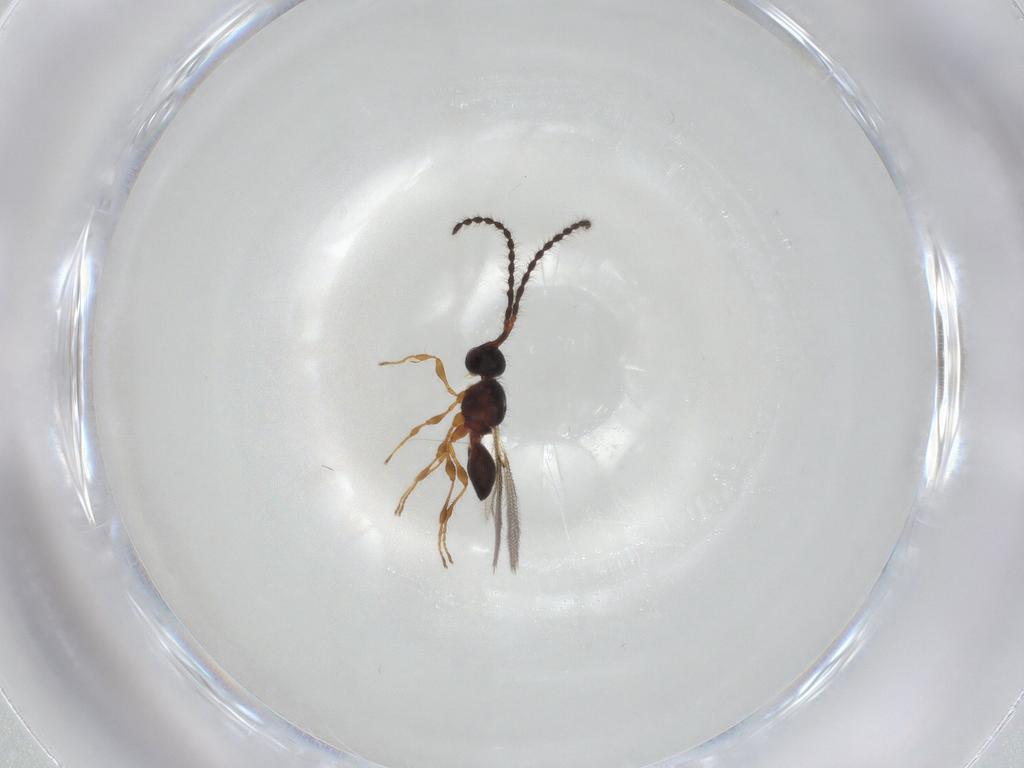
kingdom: Animalia
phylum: Arthropoda
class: Insecta
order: Hymenoptera
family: Diapriidae
